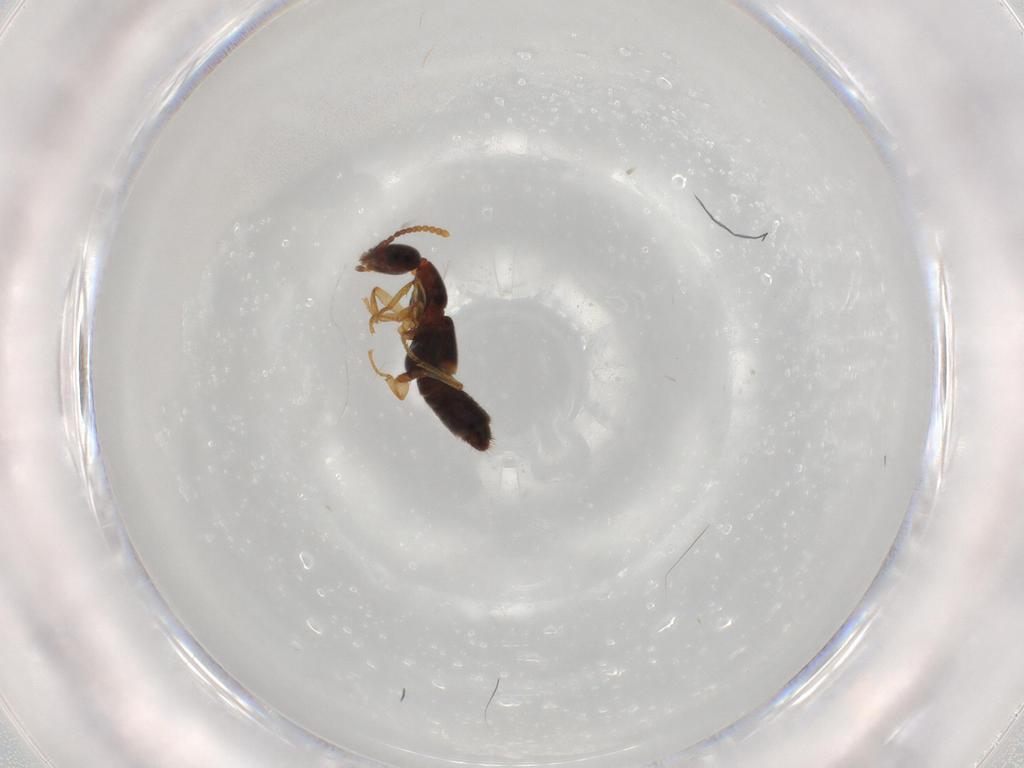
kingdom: Animalia
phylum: Arthropoda
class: Insecta
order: Coleoptera
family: Staphylinidae
